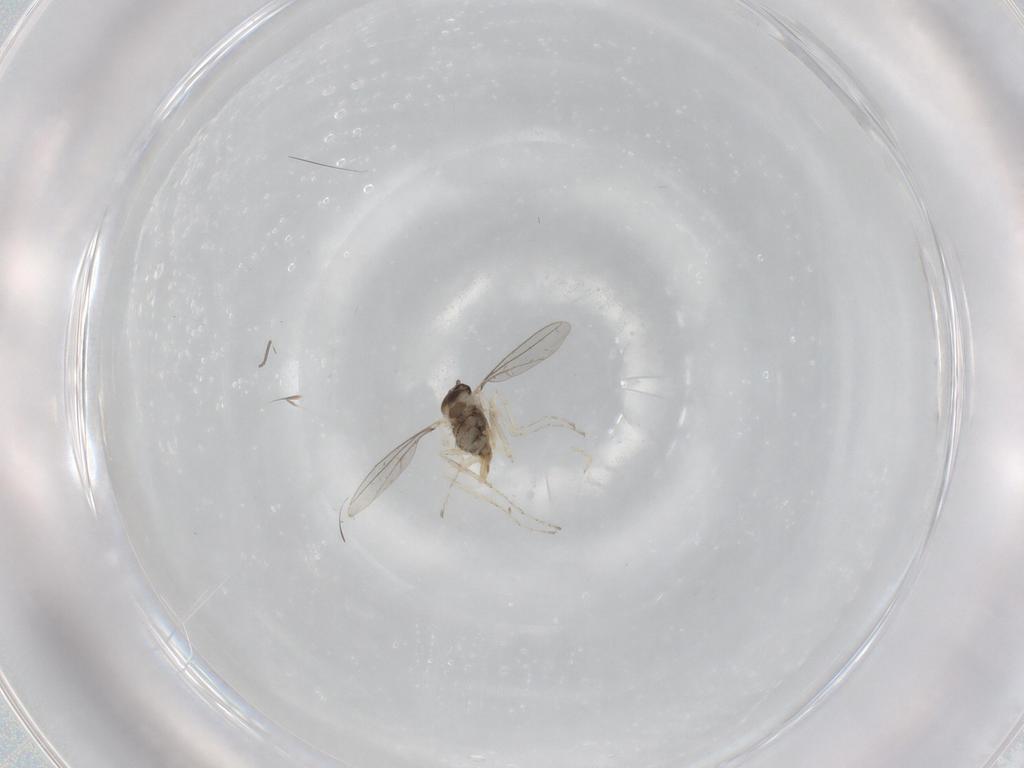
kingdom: Animalia
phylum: Arthropoda
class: Insecta
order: Diptera
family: Cecidomyiidae
